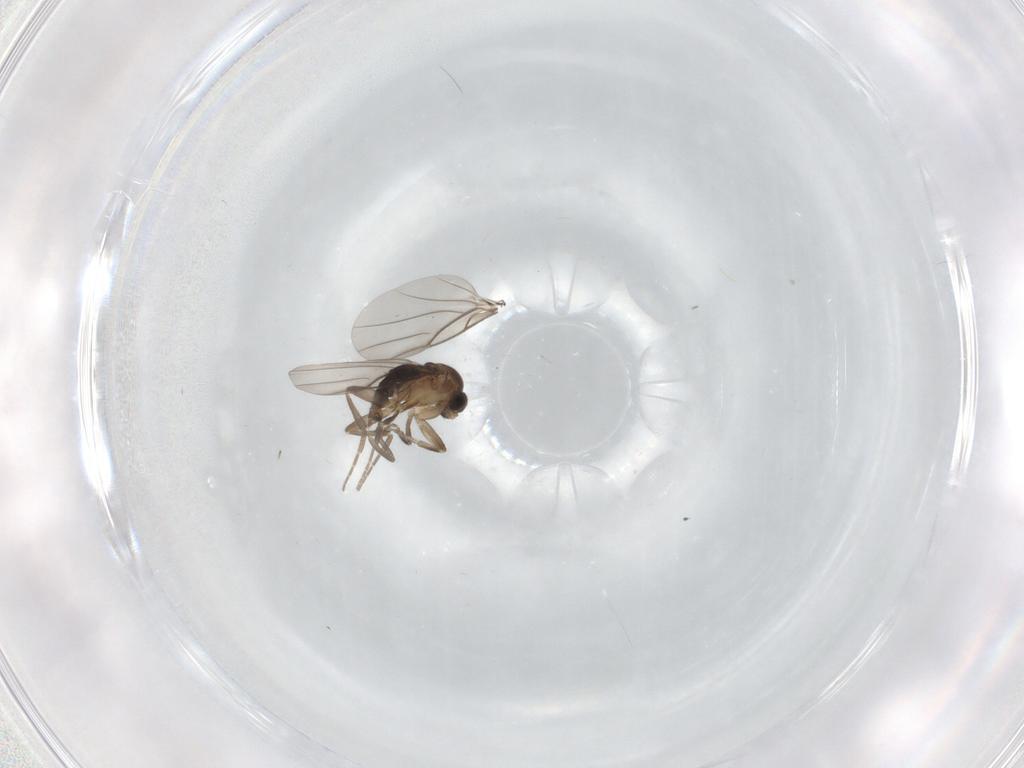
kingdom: Animalia
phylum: Arthropoda
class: Insecta
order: Diptera
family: Phoridae
